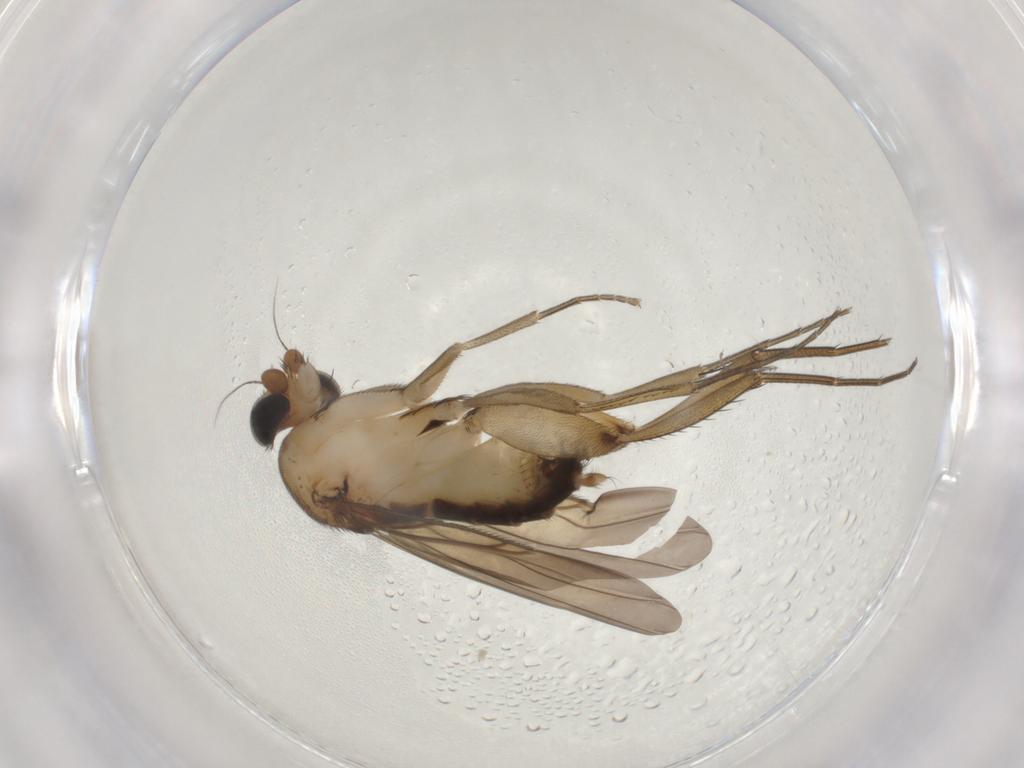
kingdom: Animalia
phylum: Arthropoda
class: Insecta
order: Diptera
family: Phoridae
